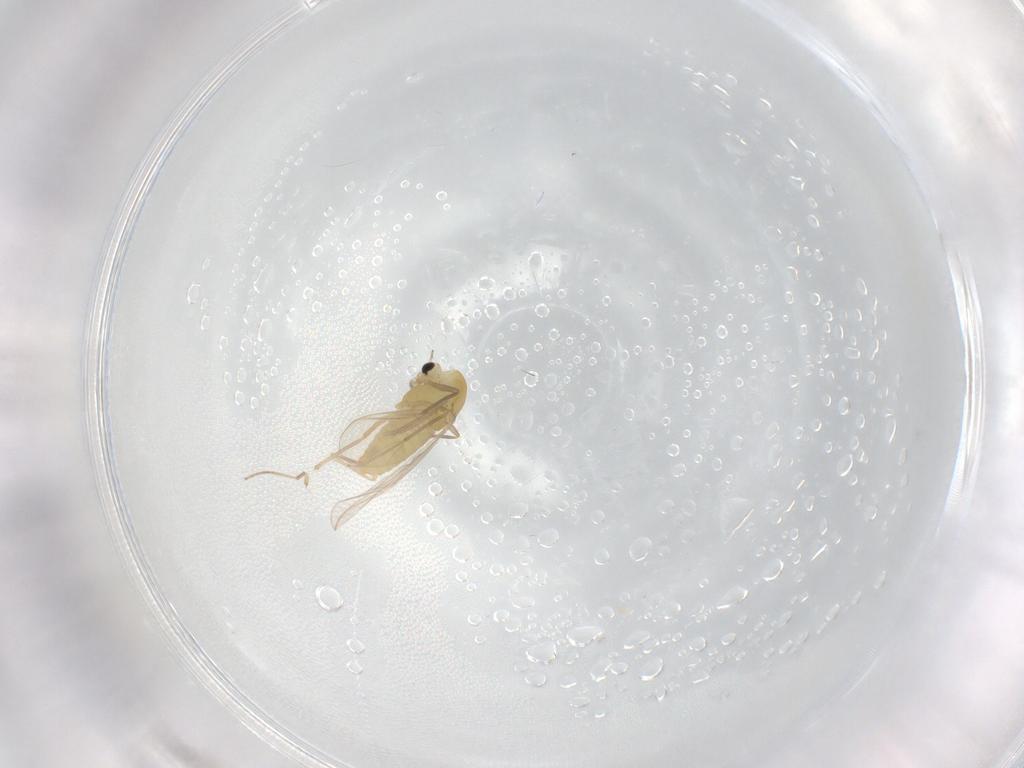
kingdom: Animalia
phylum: Arthropoda
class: Insecta
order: Diptera
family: Chironomidae
